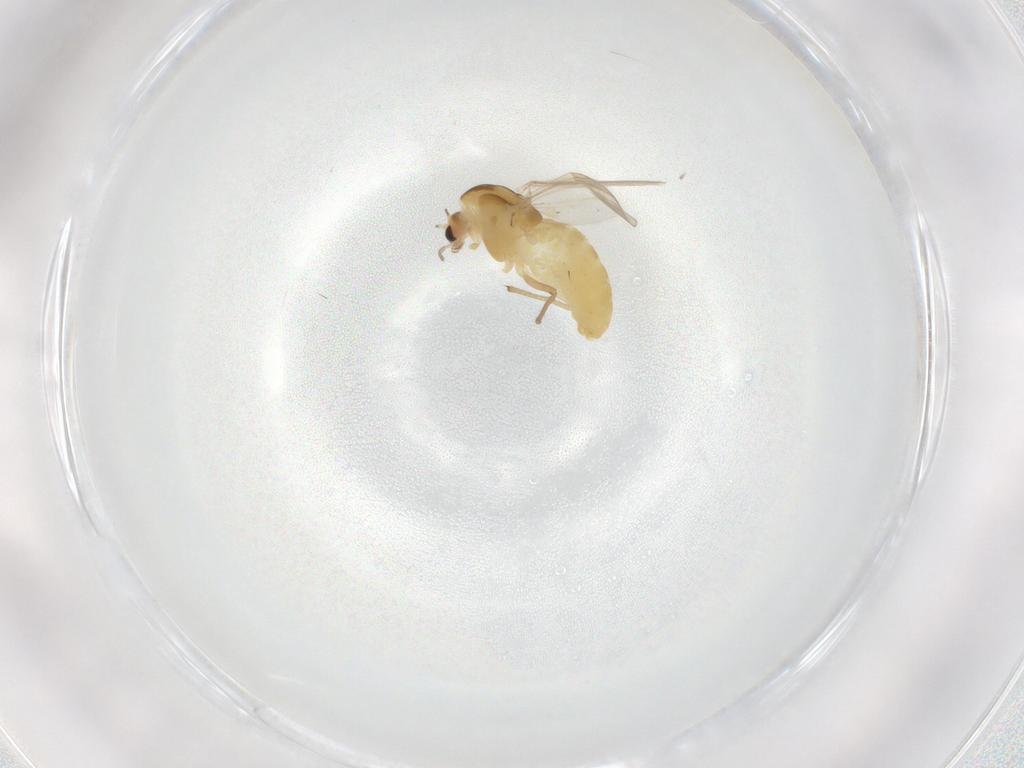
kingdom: Animalia
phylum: Arthropoda
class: Insecta
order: Diptera
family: Chironomidae
